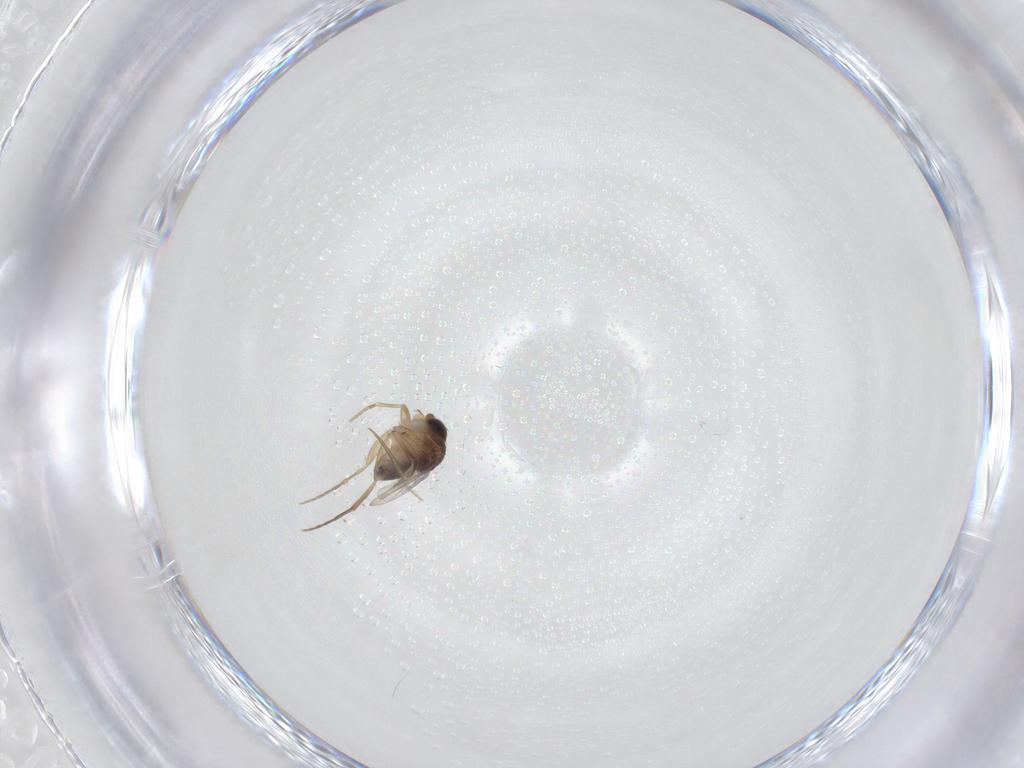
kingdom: Animalia
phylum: Arthropoda
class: Insecta
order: Diptera
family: Phoridae
